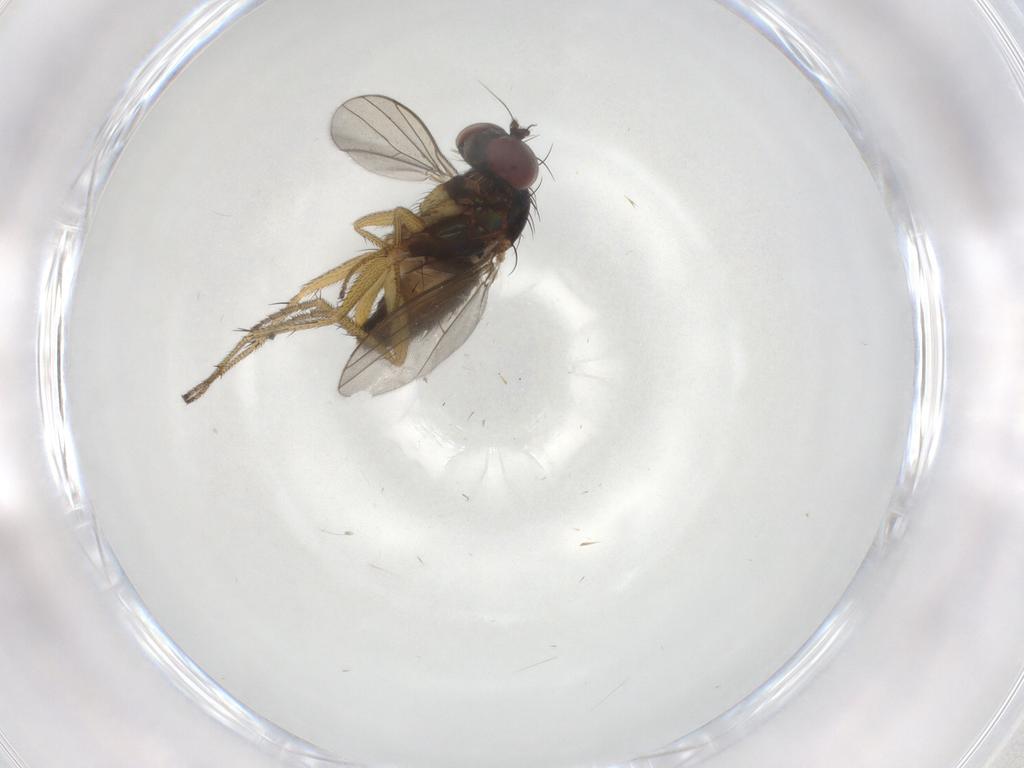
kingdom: Animalia
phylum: Arthropoda
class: Insecta
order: Diptera
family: Dolichopodidae
